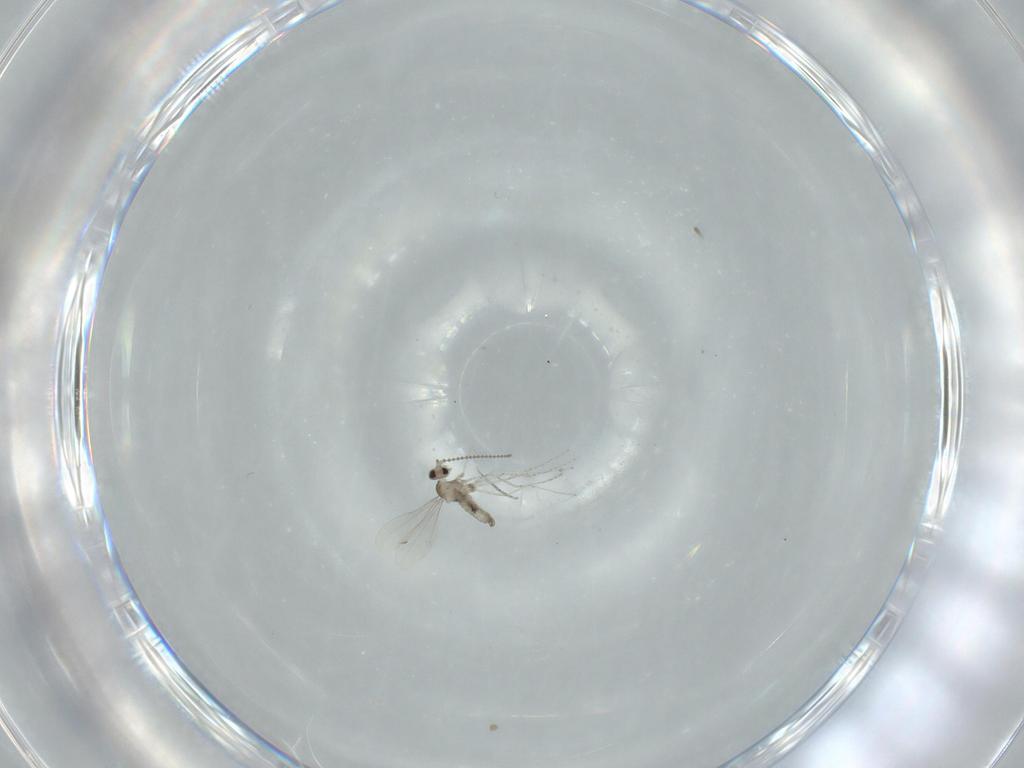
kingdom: Animalia
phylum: Arthropoda
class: Insecta
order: Diptera
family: Cecidomyiidae
